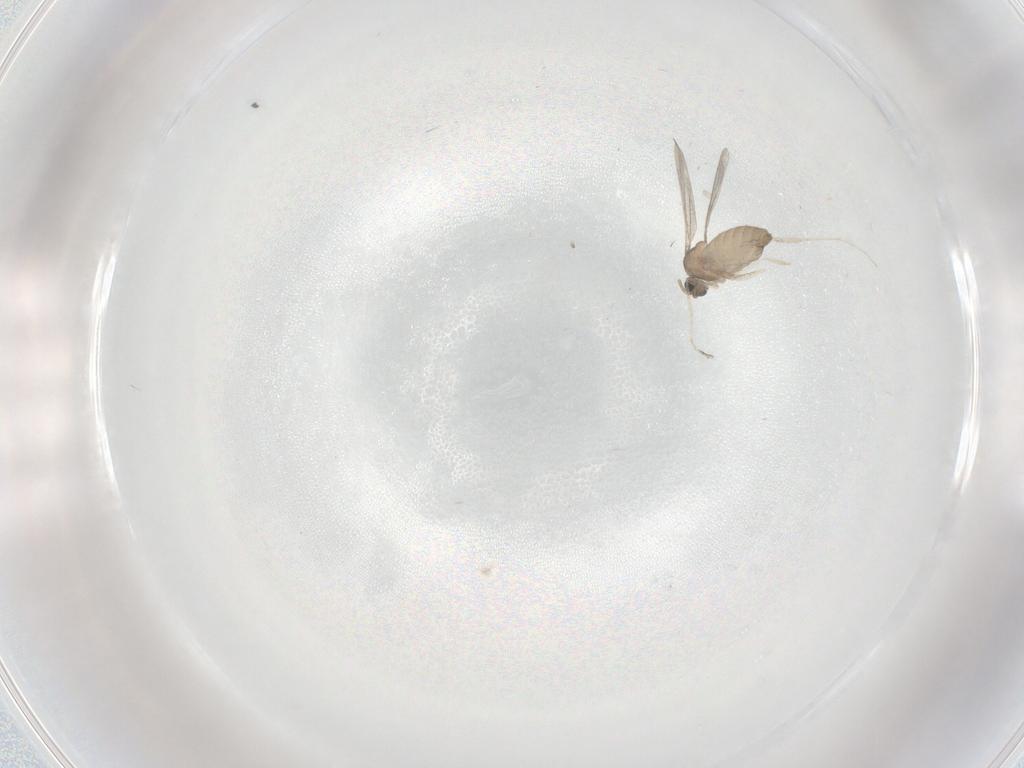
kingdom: Animalia
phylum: Arthropoda
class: Insecta
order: Diptera
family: Cecidomyiidae
